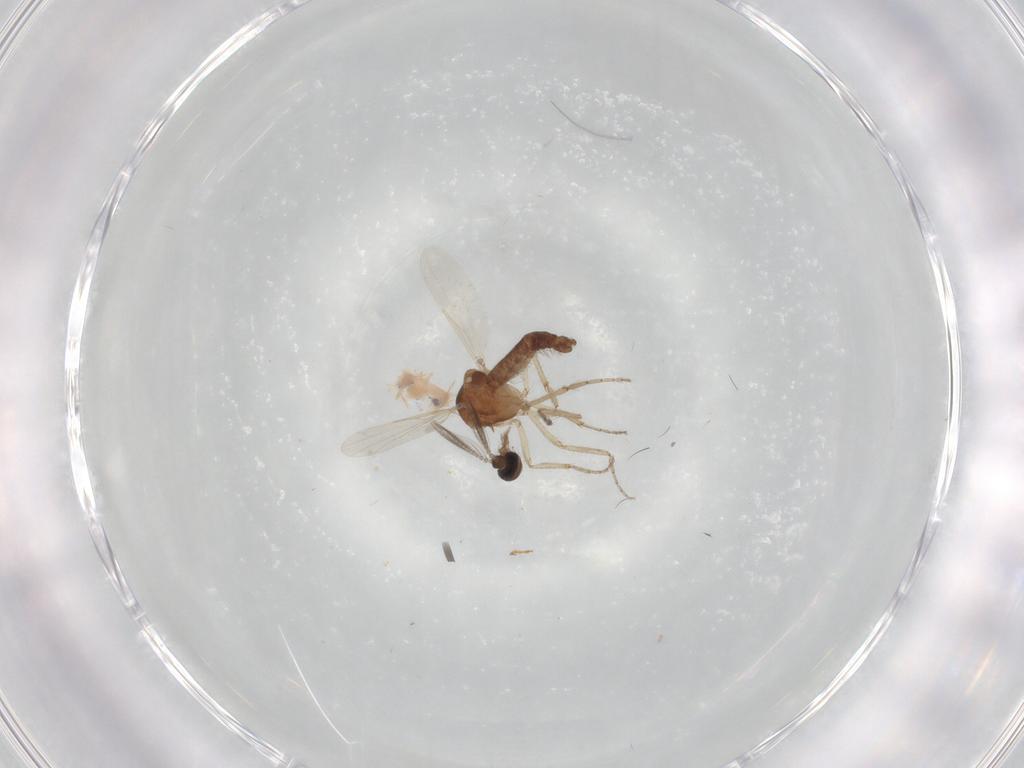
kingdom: Animalia
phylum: Arthropoda
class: Insecta
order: Diptera
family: Ceratopogonidae
